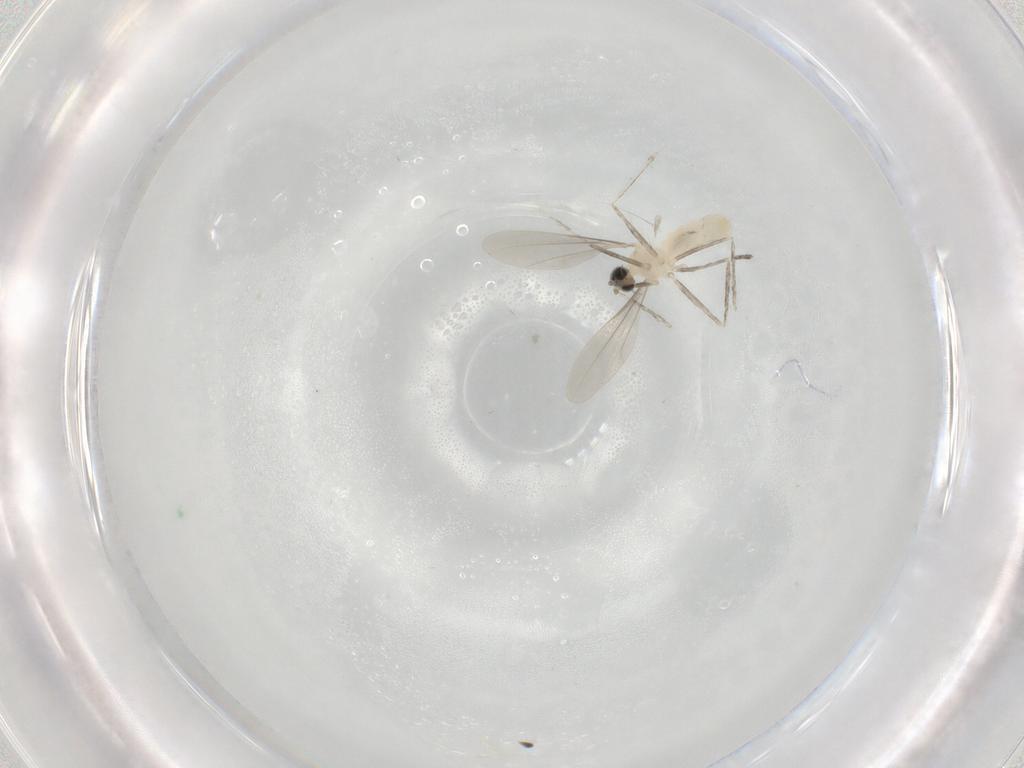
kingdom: Animalia
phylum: Arthropoda
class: Insecta
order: Diptera
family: Cecidomyiidae
